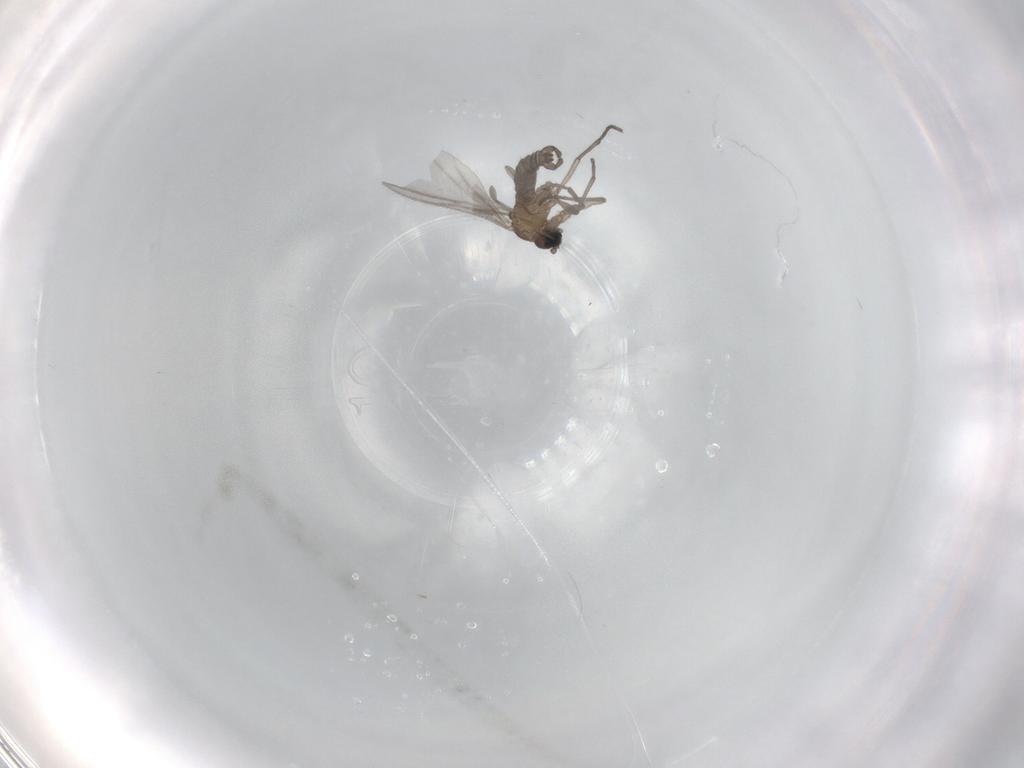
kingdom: Animalia
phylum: Arthropoda
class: Insecta
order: Diptera
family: Sciaridae
